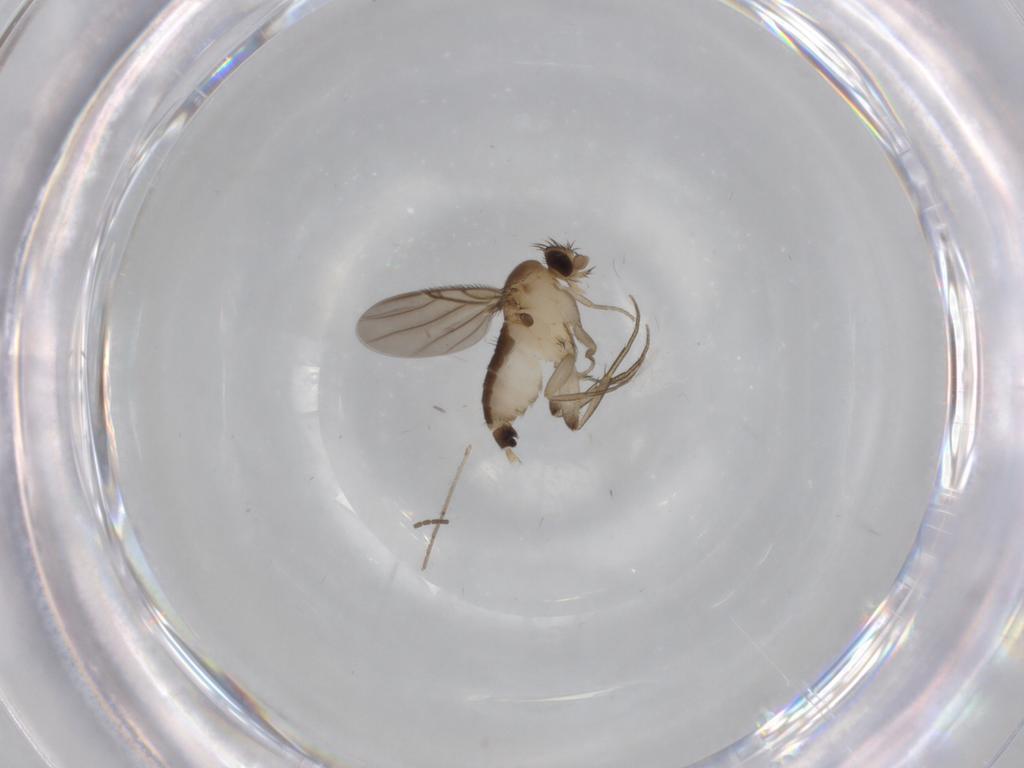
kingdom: Animalia
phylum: Arthropoda
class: Insecta
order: Diptera
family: Phoridae
